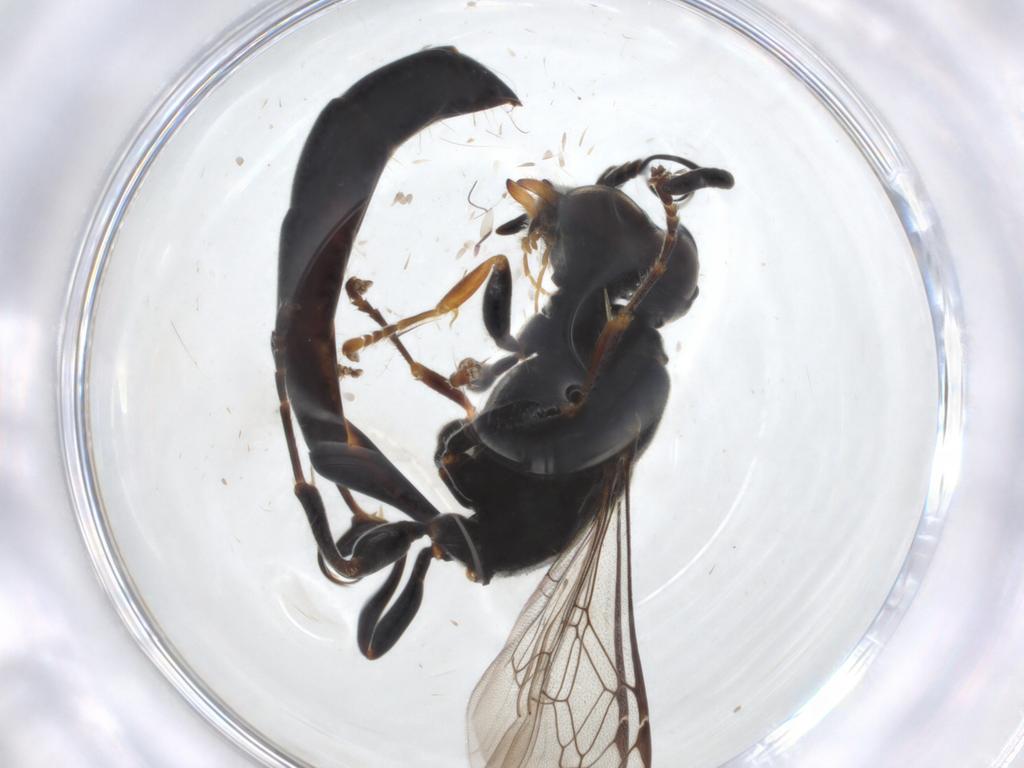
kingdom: Animalia
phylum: Arthropoda
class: Insecta
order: Hymenoptera
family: Crabronidae
